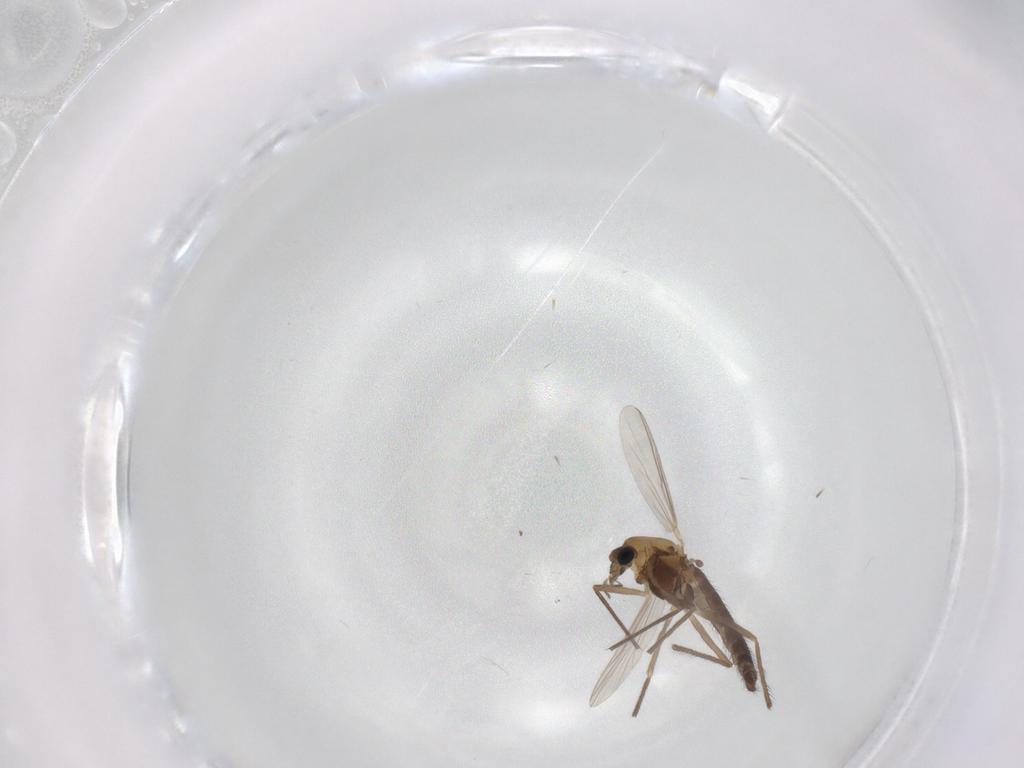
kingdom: Animalia
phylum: Arthropoda
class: Insecta
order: Diptera
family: Chironomidae
